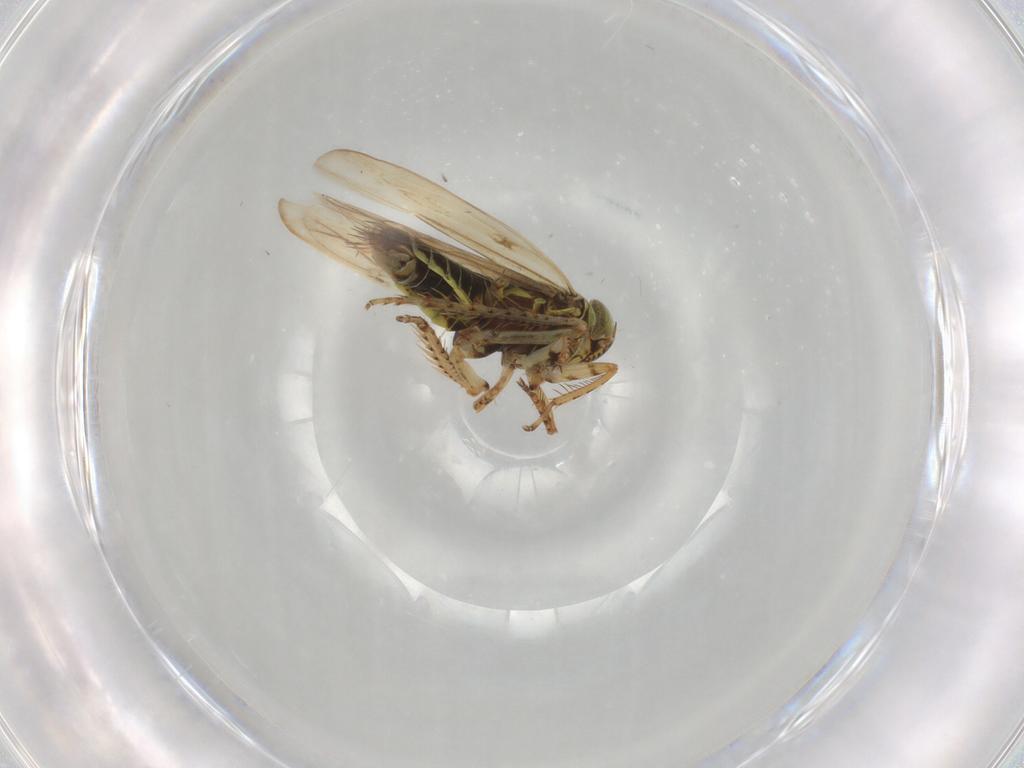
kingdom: Animalia
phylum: Arthropoda
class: Insecta
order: Hemiptera
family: Cicadellidae
